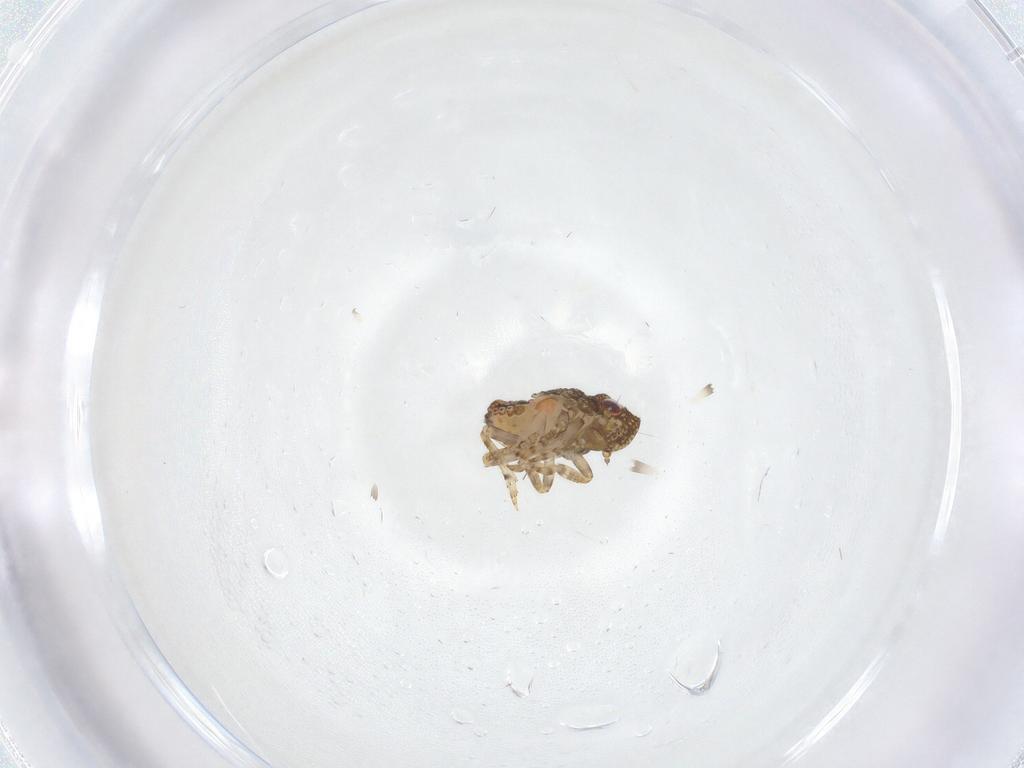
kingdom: Animalia
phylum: Arthropoda
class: Insecta
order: Hemiptera
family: Nogodinidae
